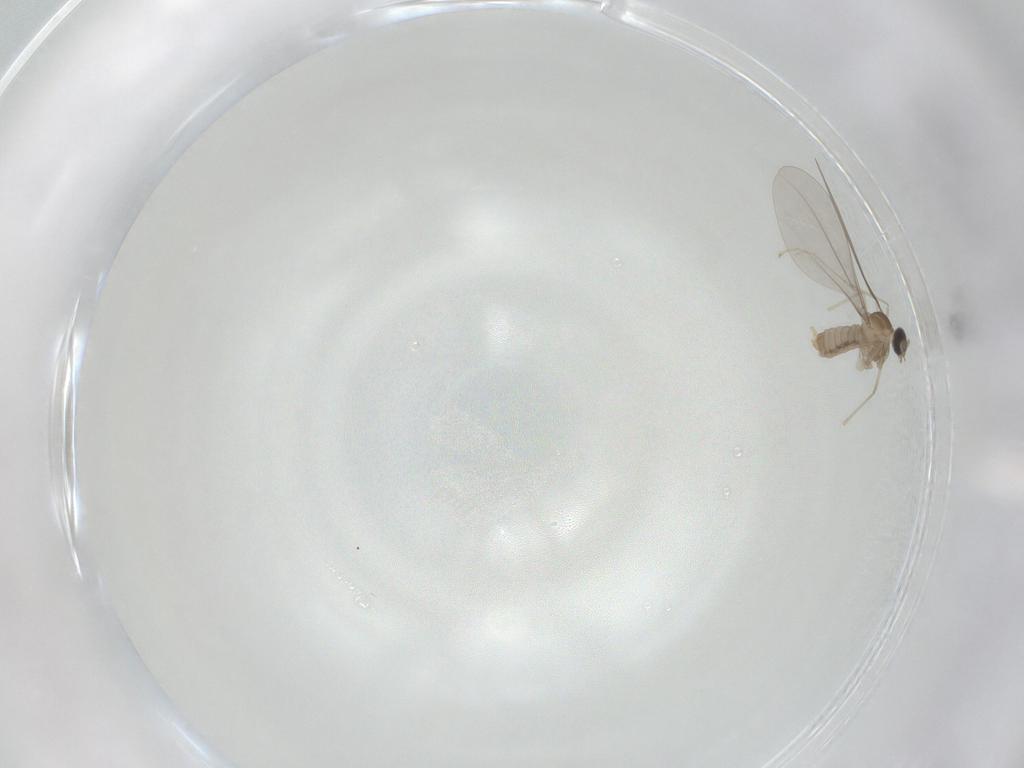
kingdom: Animalia
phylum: Arthropoda
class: Insecta
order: Diptera
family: Cecidomyiidae
